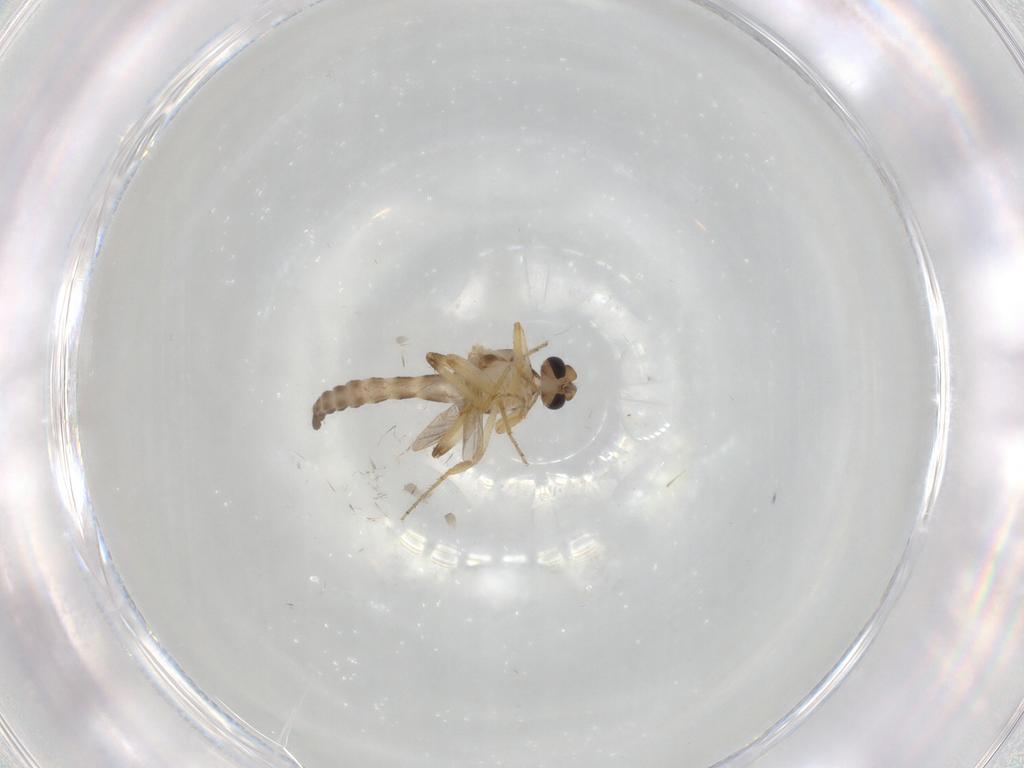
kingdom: Animalia
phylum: Arthropoda
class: Insecta
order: Diptera
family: Ceratopogonidae
